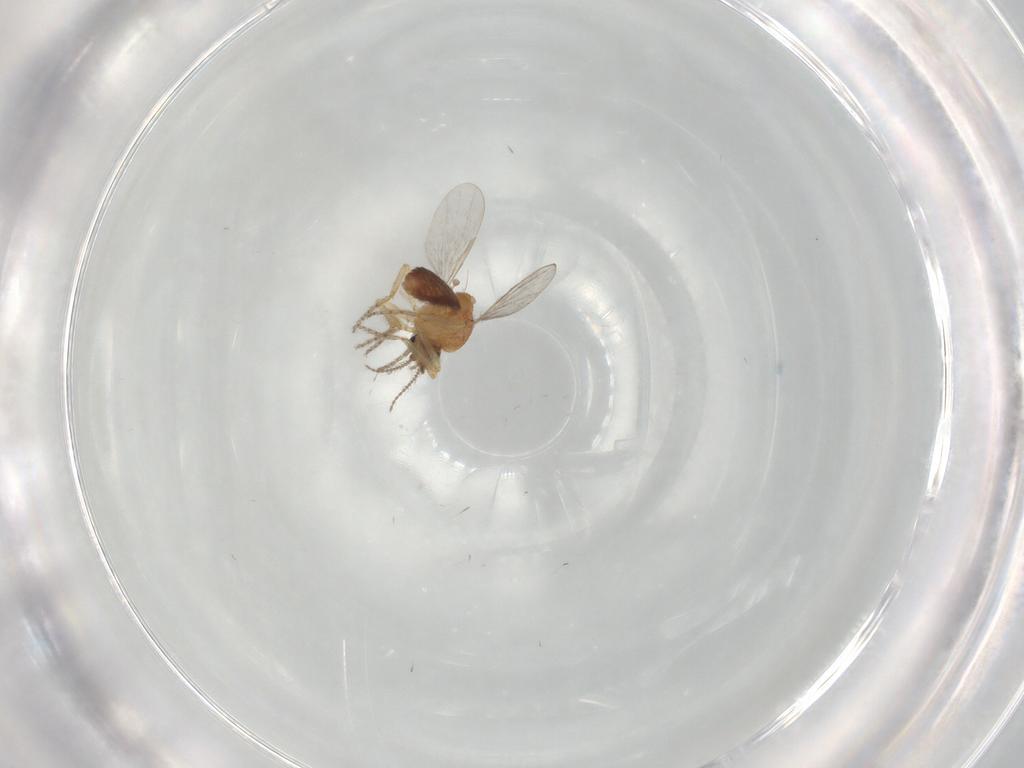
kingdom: Animalia
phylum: Arthropoda
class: Insecta
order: Diptera
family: Ceratopogonidae
